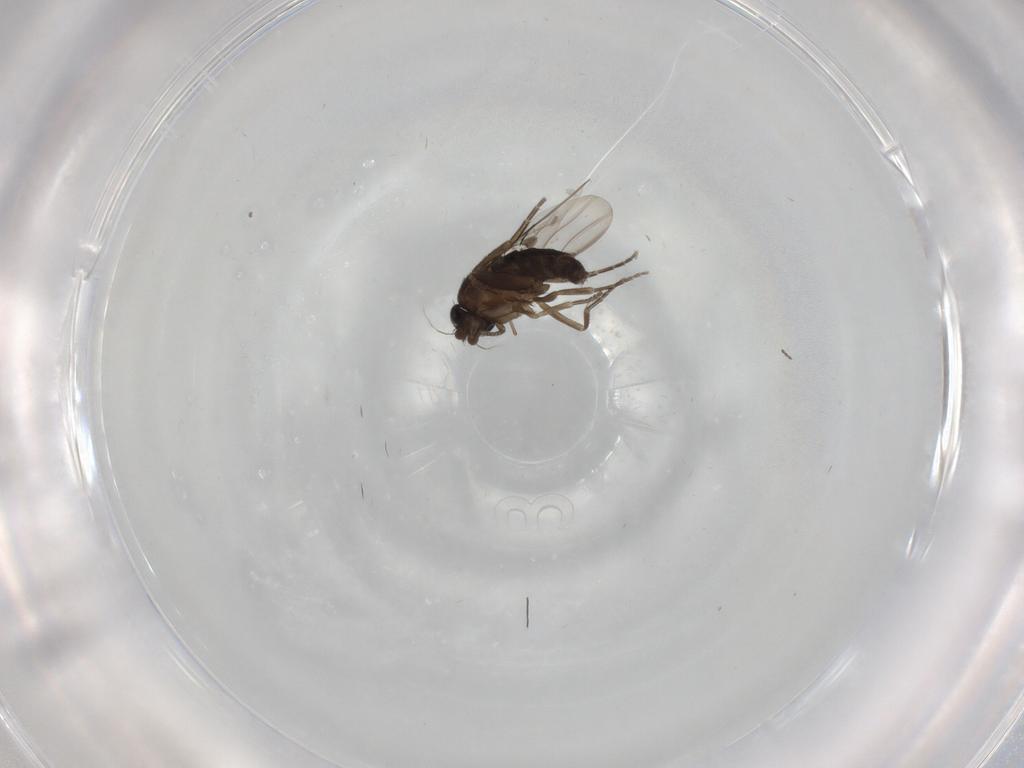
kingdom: Animalia
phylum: Arthropoda
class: Insecta
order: Diptera
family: Phoridae
